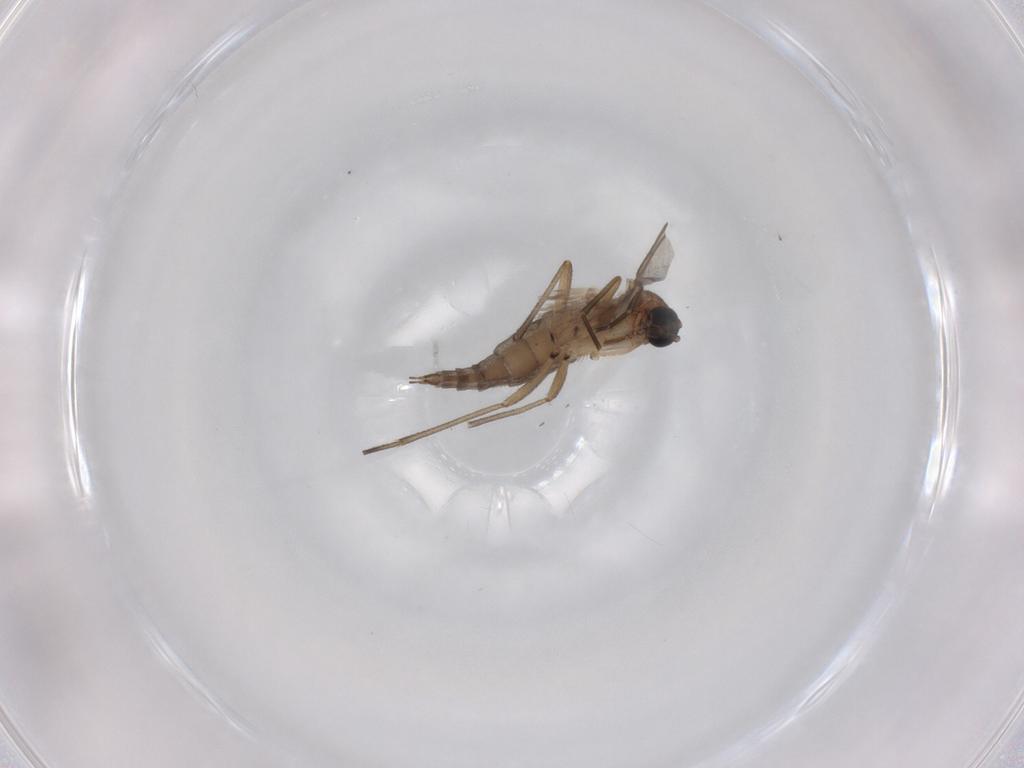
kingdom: Animalia
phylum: Arthropoda
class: Insecta
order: Diptera
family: Sciaridae
